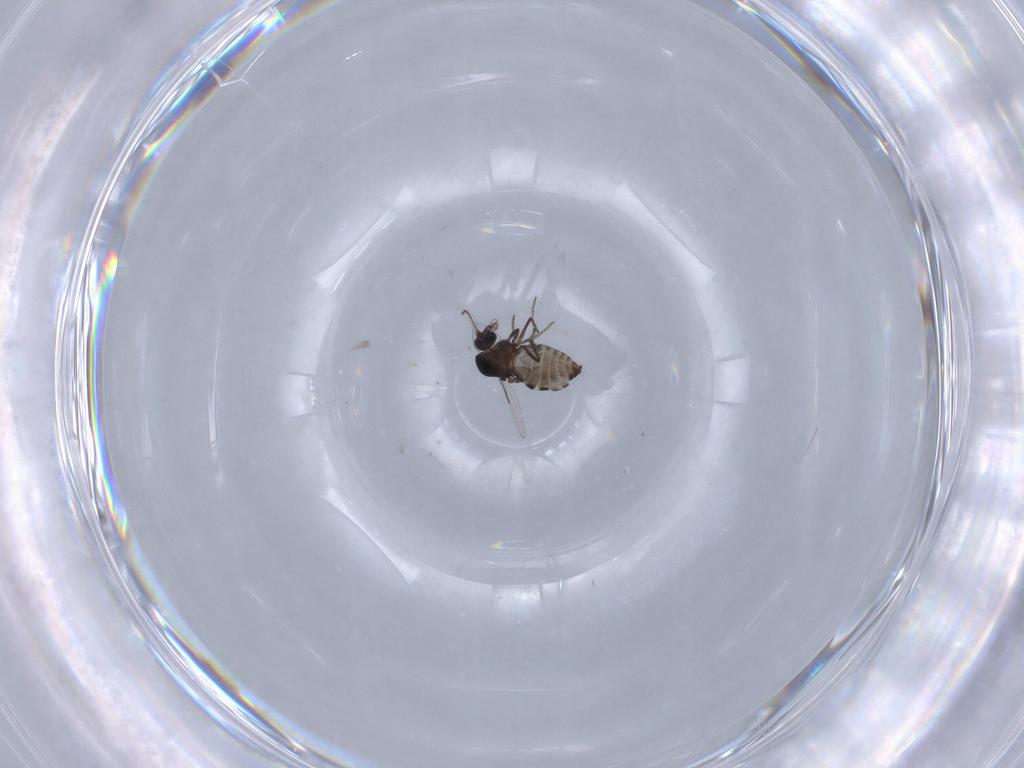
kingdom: Animalia
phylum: Arthropoda
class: Insecta
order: Diptera
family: Ceratopogonidae
